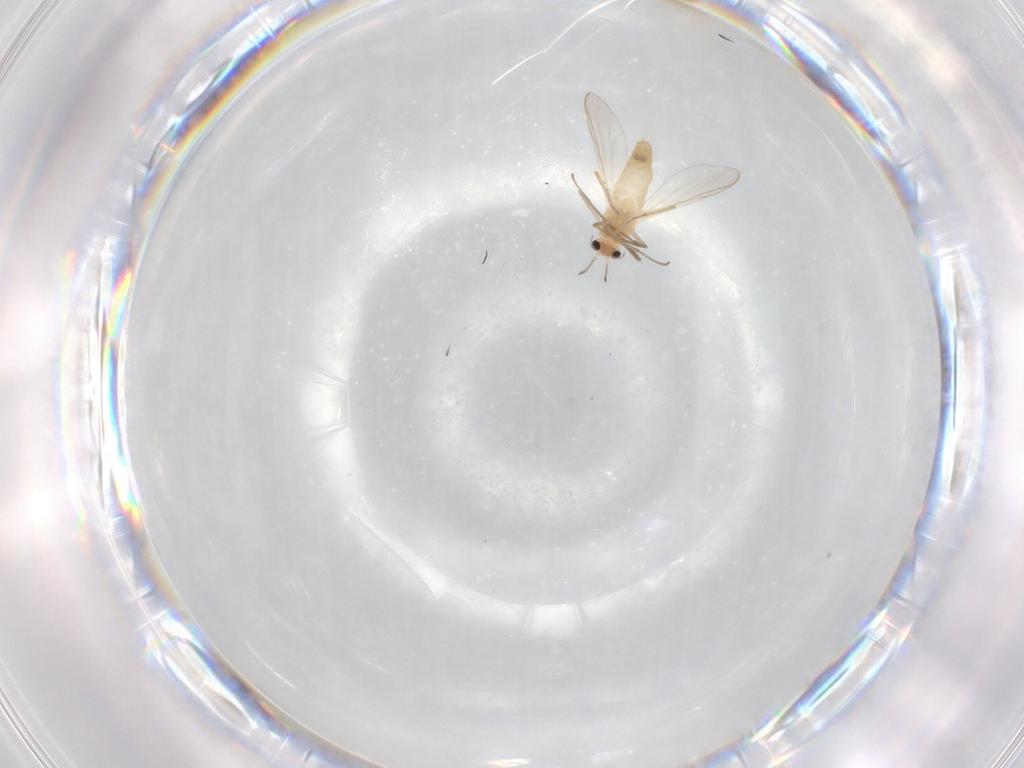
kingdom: Animalia
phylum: Arthropoda
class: Insecta
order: Diptera
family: Chironomidae
